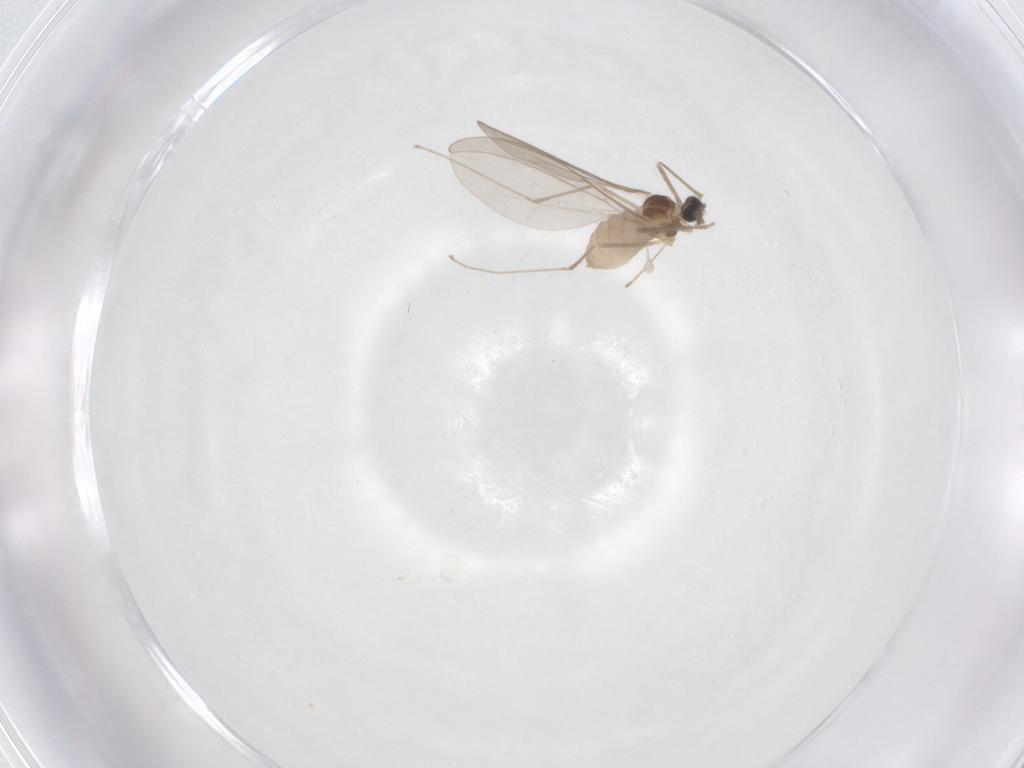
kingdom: Animalia
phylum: Arthropoda
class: Insecta
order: Diptera
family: Cecidomyiidae
